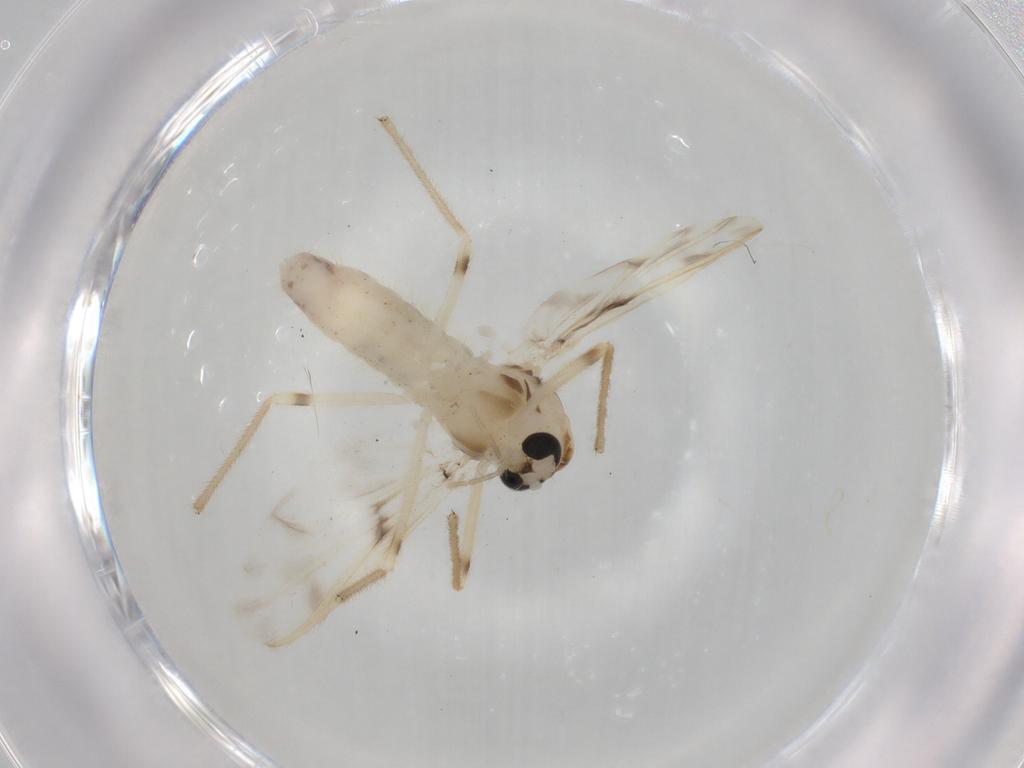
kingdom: Animalia
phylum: Arthropoda
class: Insecta
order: Diptera
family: Chironomidae
